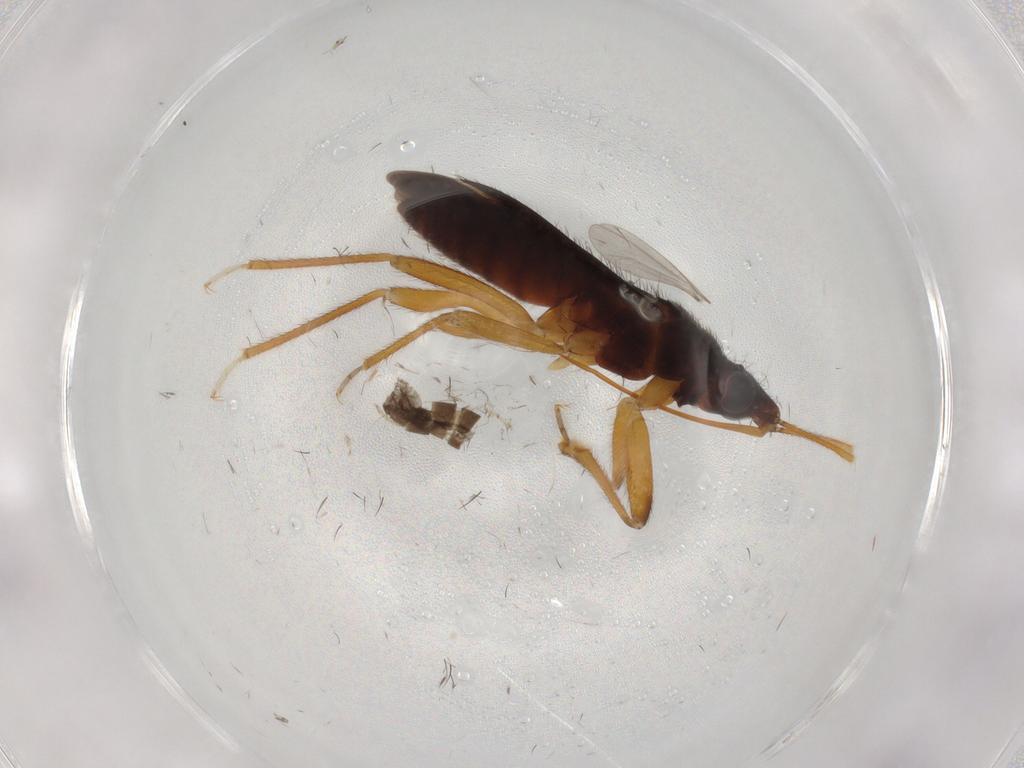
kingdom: Animalia
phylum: Arthropoda
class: Insecta
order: Hemiptera
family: Anthocoridae
